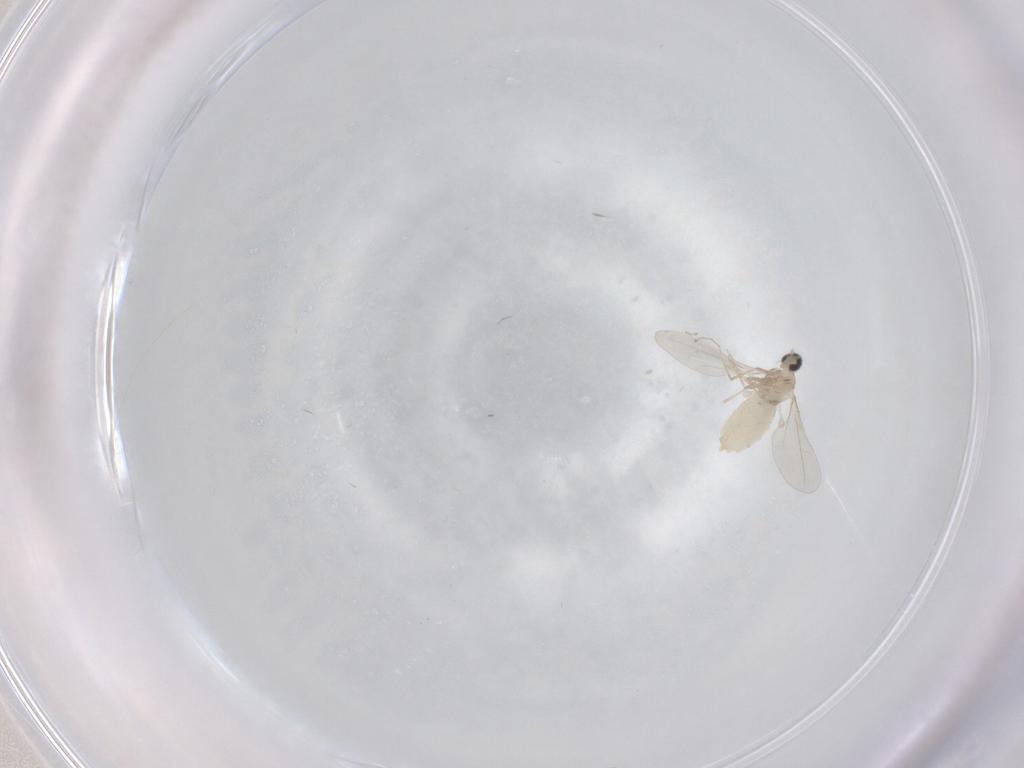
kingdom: Animalia
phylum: Arthropoda
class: Insecta
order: Diptera
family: Cecidomyiidae
